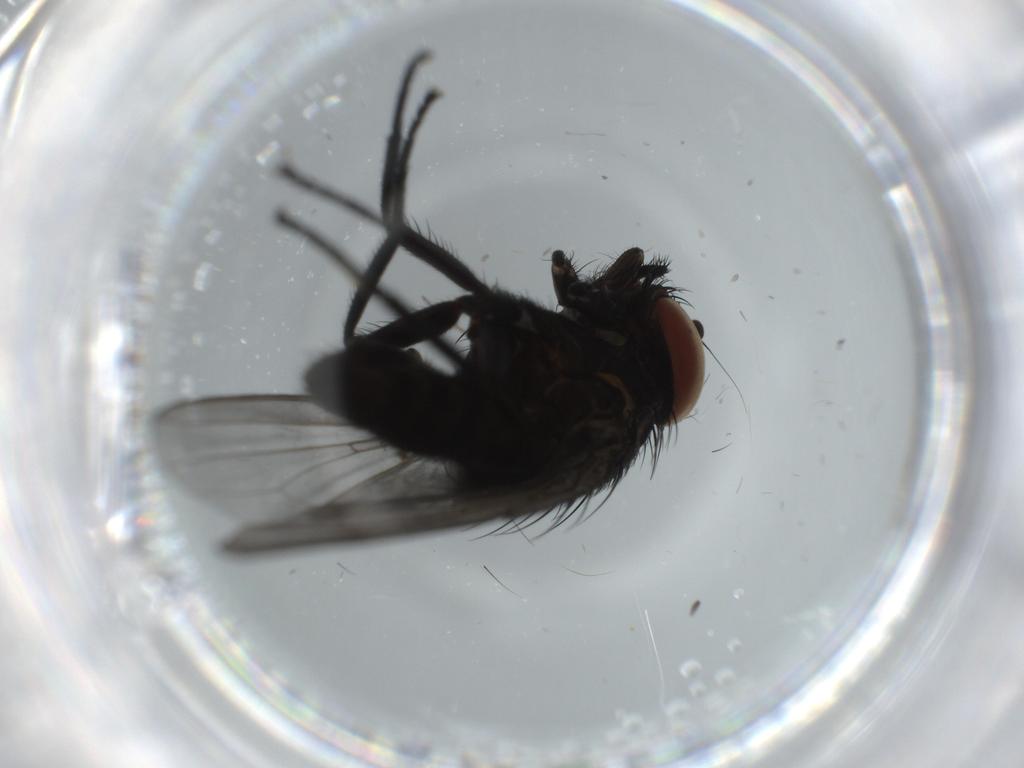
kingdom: Animalia
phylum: Arthropoda
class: Insecta
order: Diptera
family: Milichiidae
